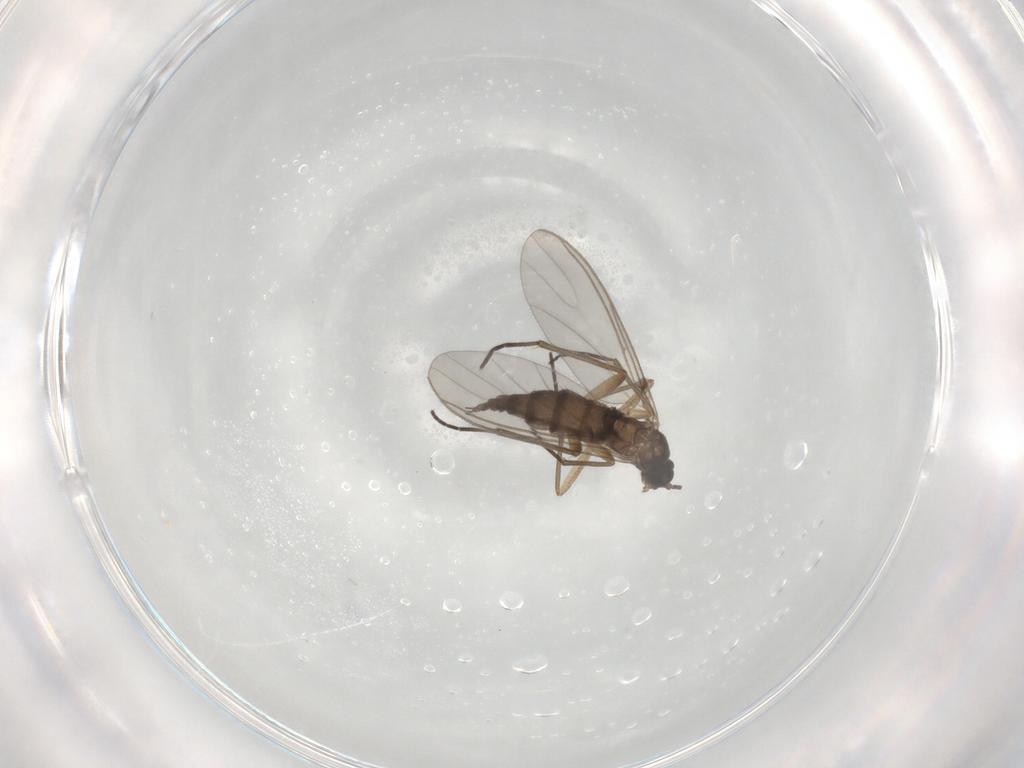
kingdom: Animalia
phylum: Arthropoda
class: Insecta
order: Diptera
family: Sciaridae
